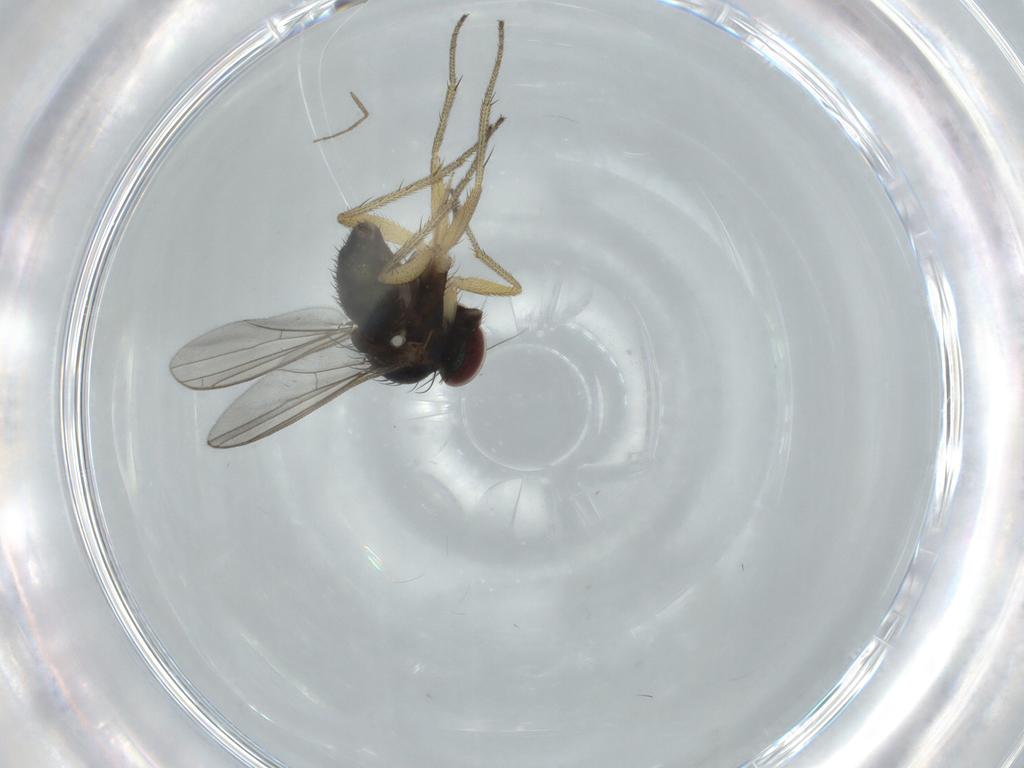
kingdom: Animalia
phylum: Arthropoda
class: Insecta
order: Diptera
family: Dolichopodidae
